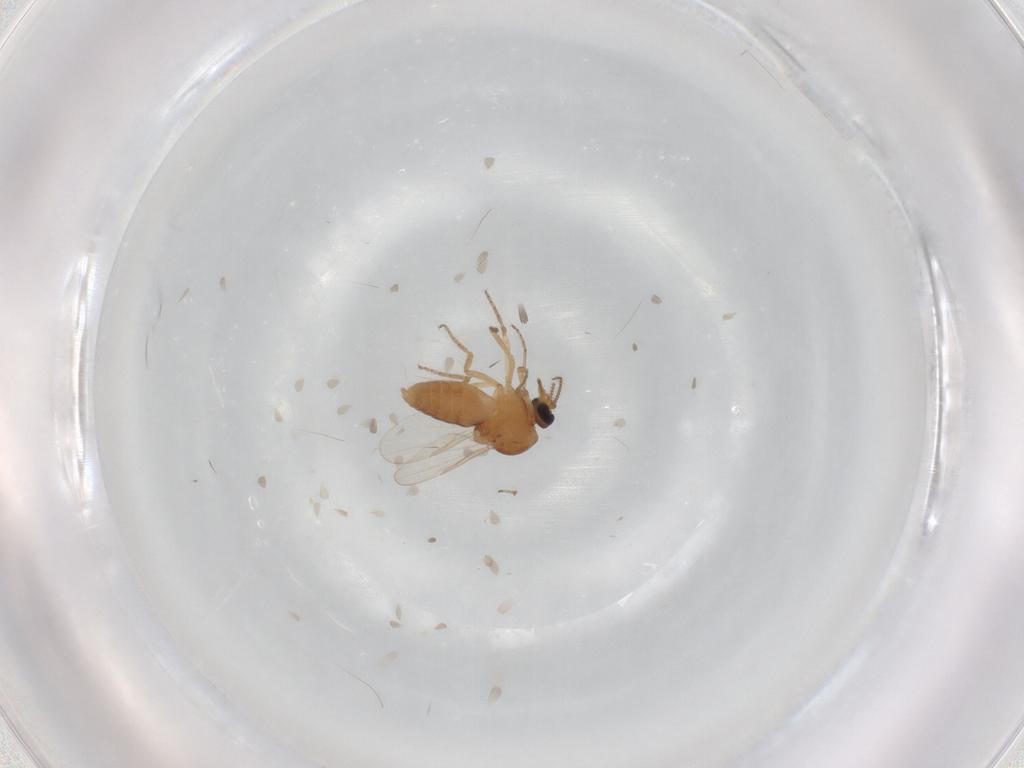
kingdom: Animalia
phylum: Arthropoda
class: Insecta
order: Diptera
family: Ceratopogonidae
